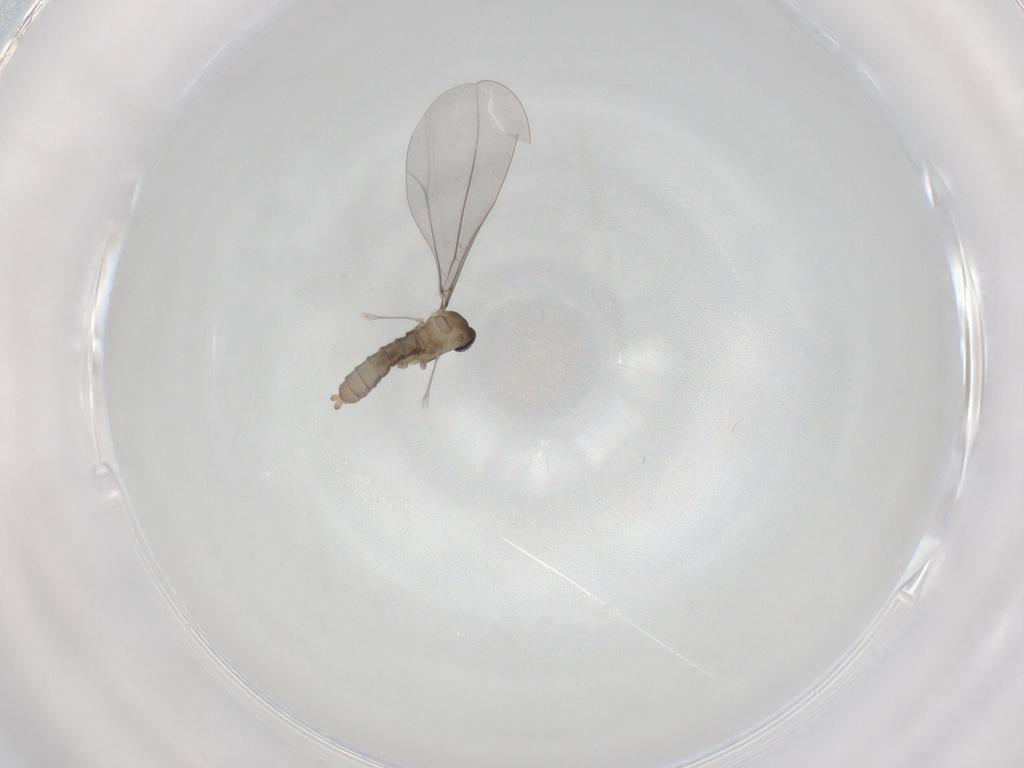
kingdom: Animalia
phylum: Arthropoda
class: Insecta
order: Diptera
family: Cecidomyiidae
